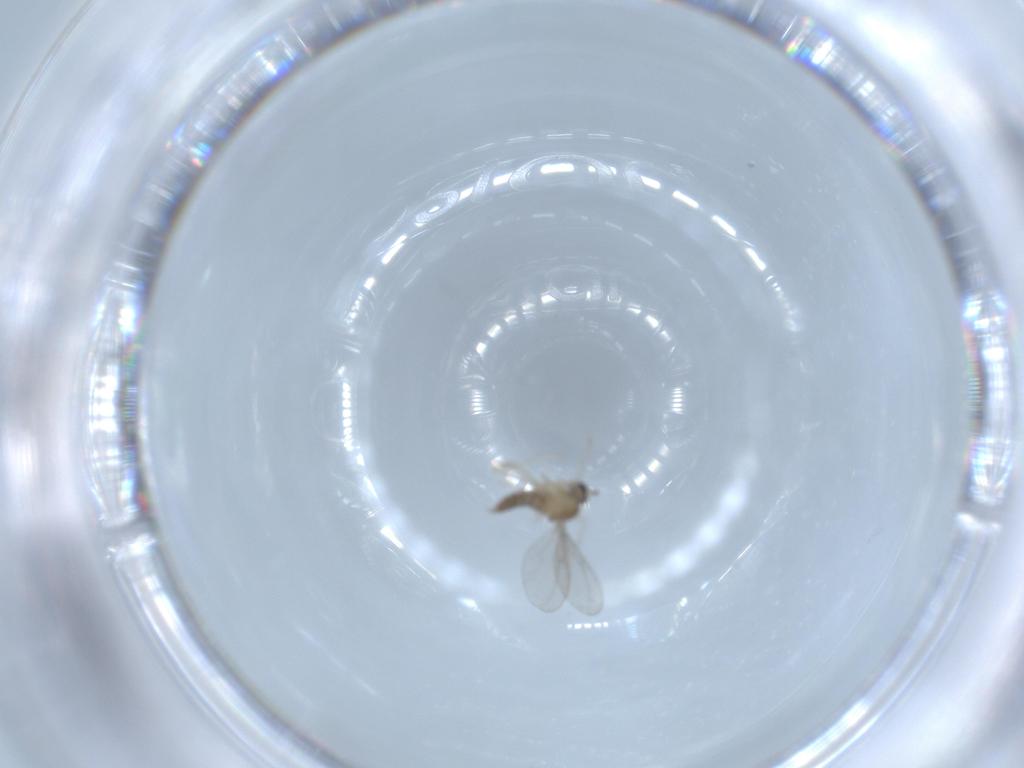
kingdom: Animalia
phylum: Arthropoda
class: Insecta
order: Diptera
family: Cecidomyiidae
